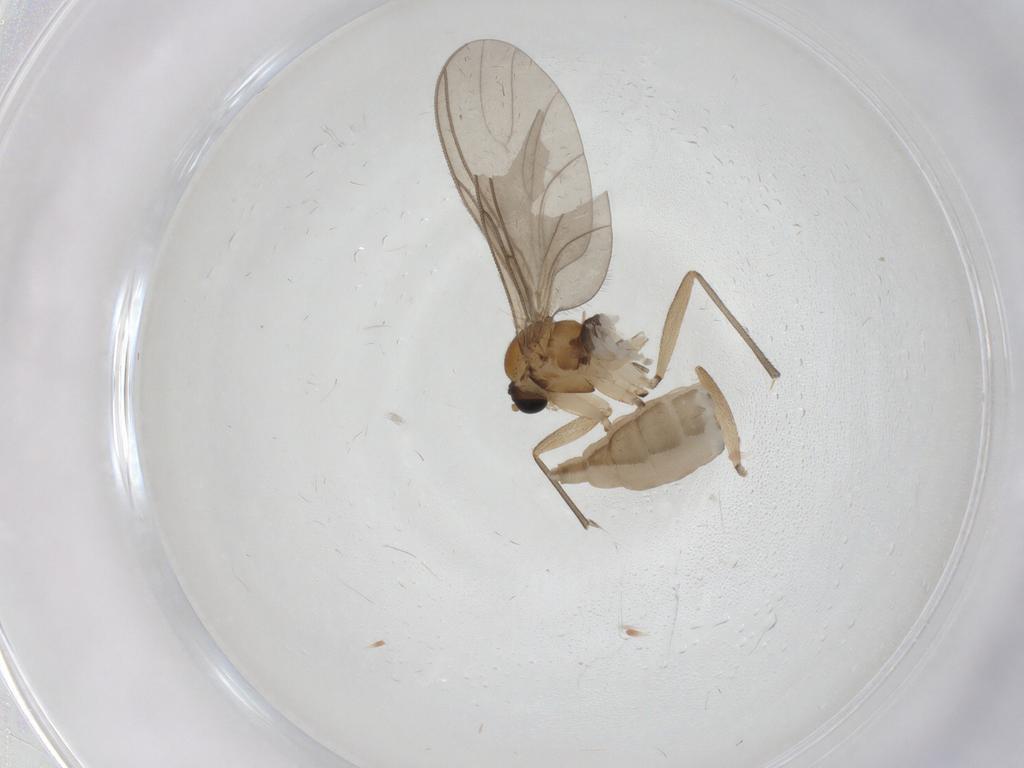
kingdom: Animalia
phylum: Arthropoda
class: Insecta
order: Diptera
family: Sciaridae
